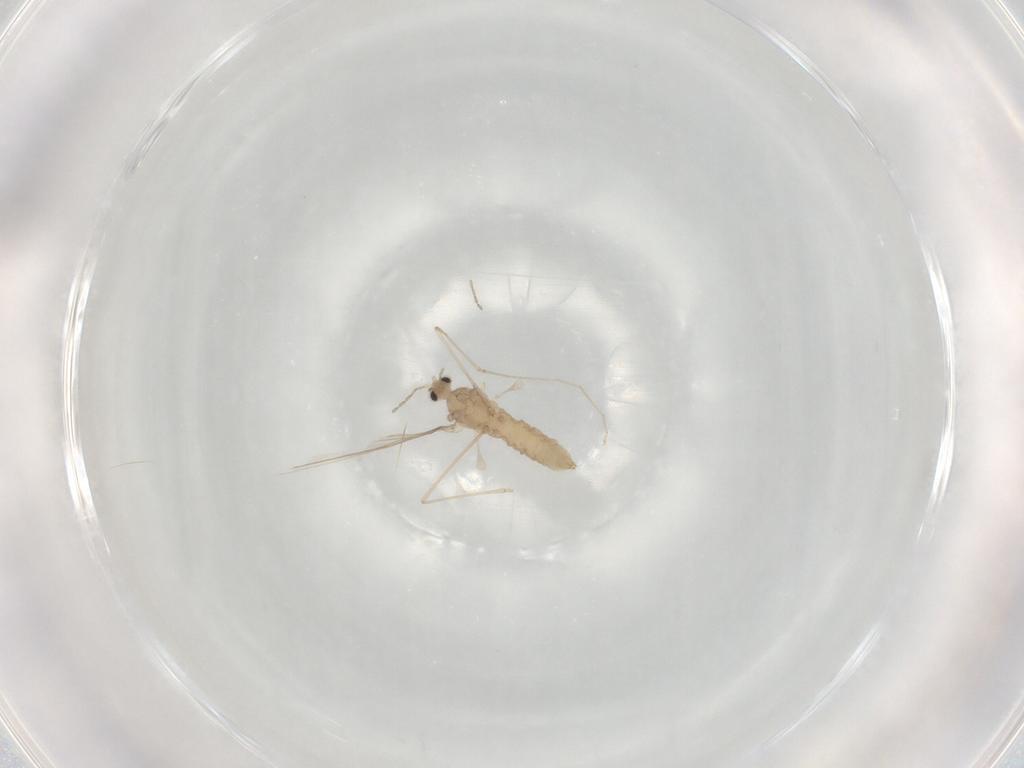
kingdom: Animalia
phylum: Arthropoda
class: Insecta
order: Diptera
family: Cecidomyiidae
